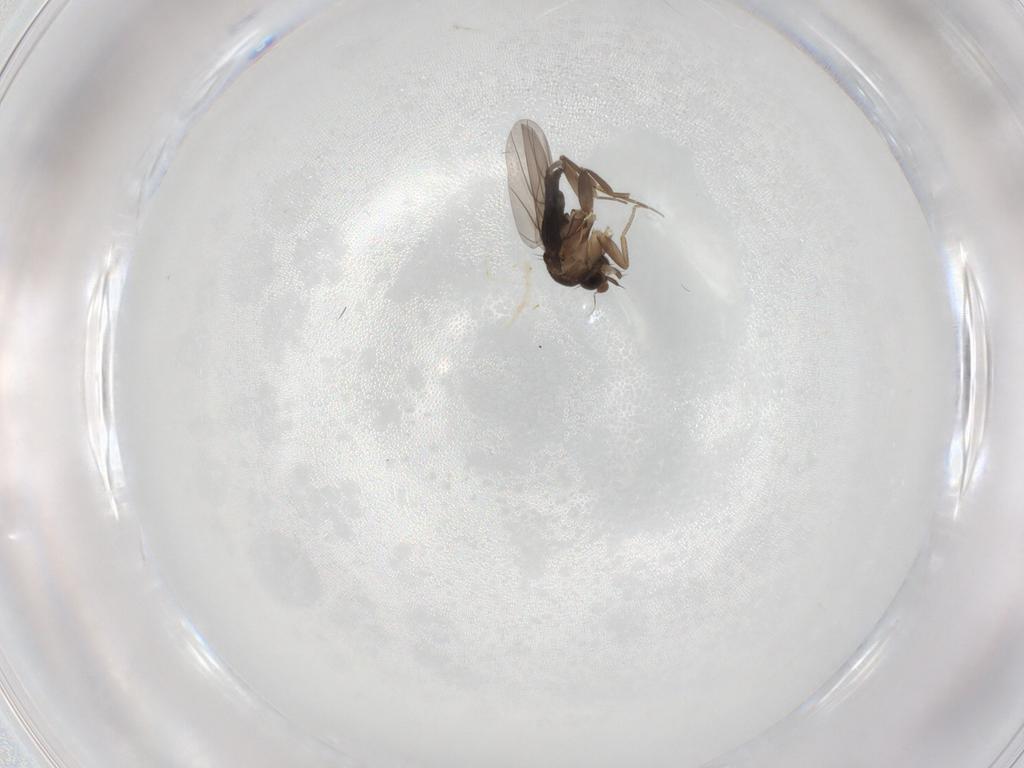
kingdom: Animalia
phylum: Arthropoda
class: Insecta
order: Diptera
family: Phoridae
